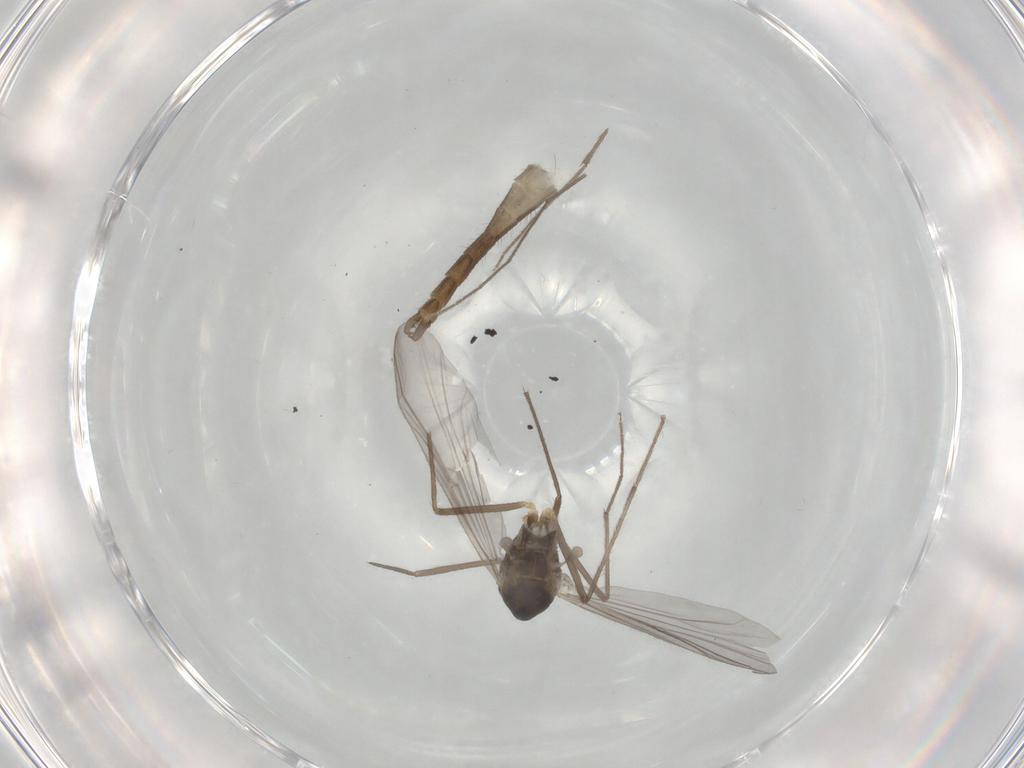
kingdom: Animalia
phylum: Arthropoda
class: Insecta
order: Diptera
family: Chironomidae
